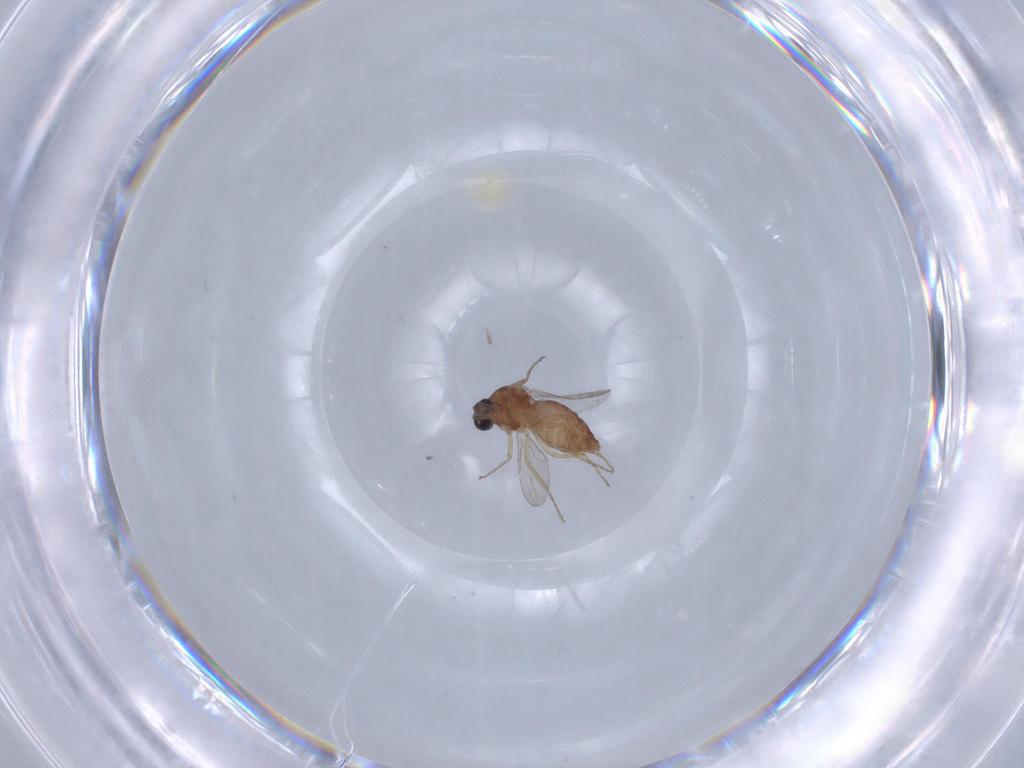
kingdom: Animalia
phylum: Arthropoda
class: Insecta
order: Diptera
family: Ceratopogonidae
